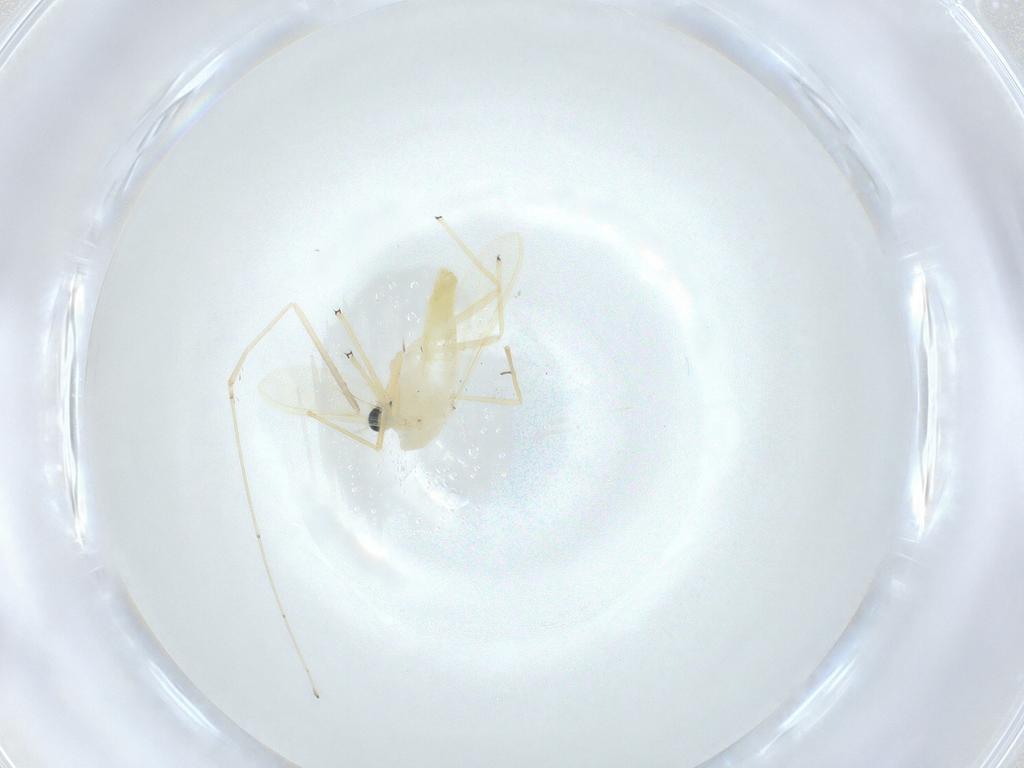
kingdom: Animalia
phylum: Arthropoda
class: Insecta
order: Diptera
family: Cecidomyiidae
